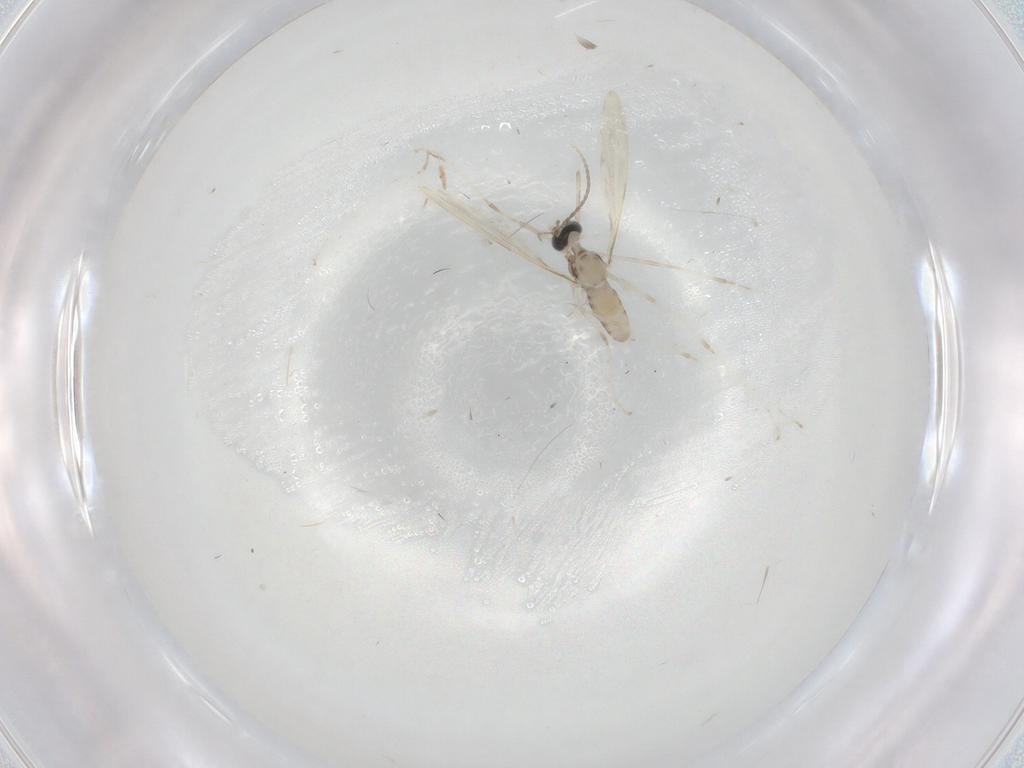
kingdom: Animalia
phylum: Arthropoda
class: Insecta
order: Diptera
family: Cecidomyiidae
